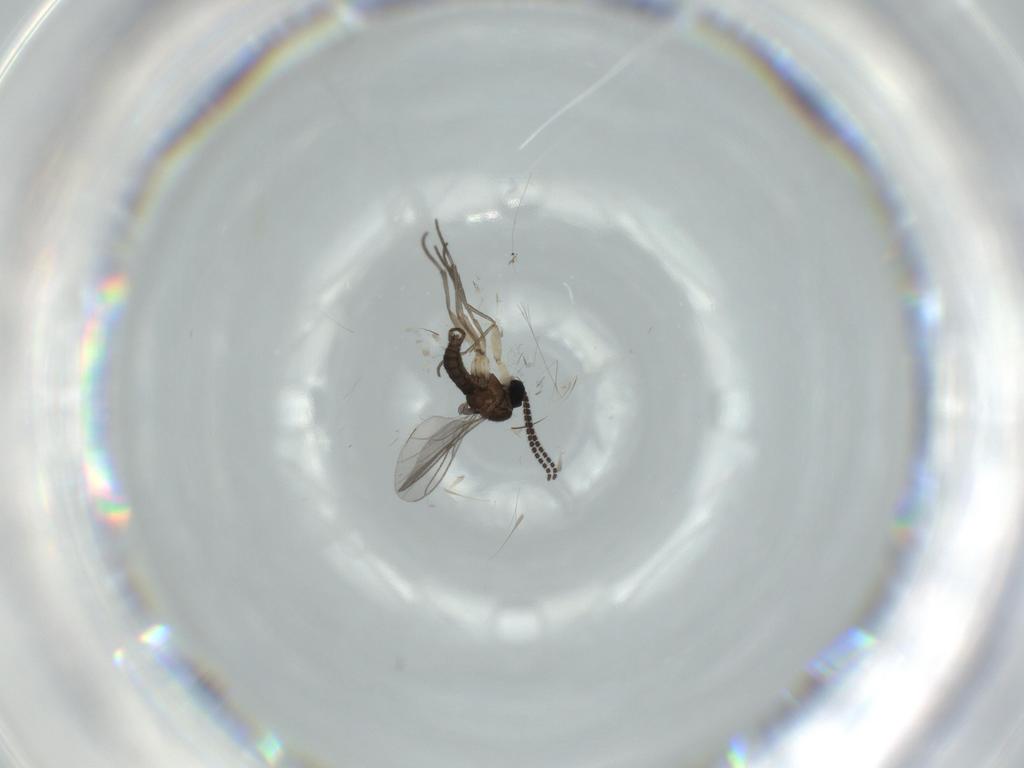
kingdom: Animalia
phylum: Arthropoda
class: Insecta
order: Diptera
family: Sciaridae
